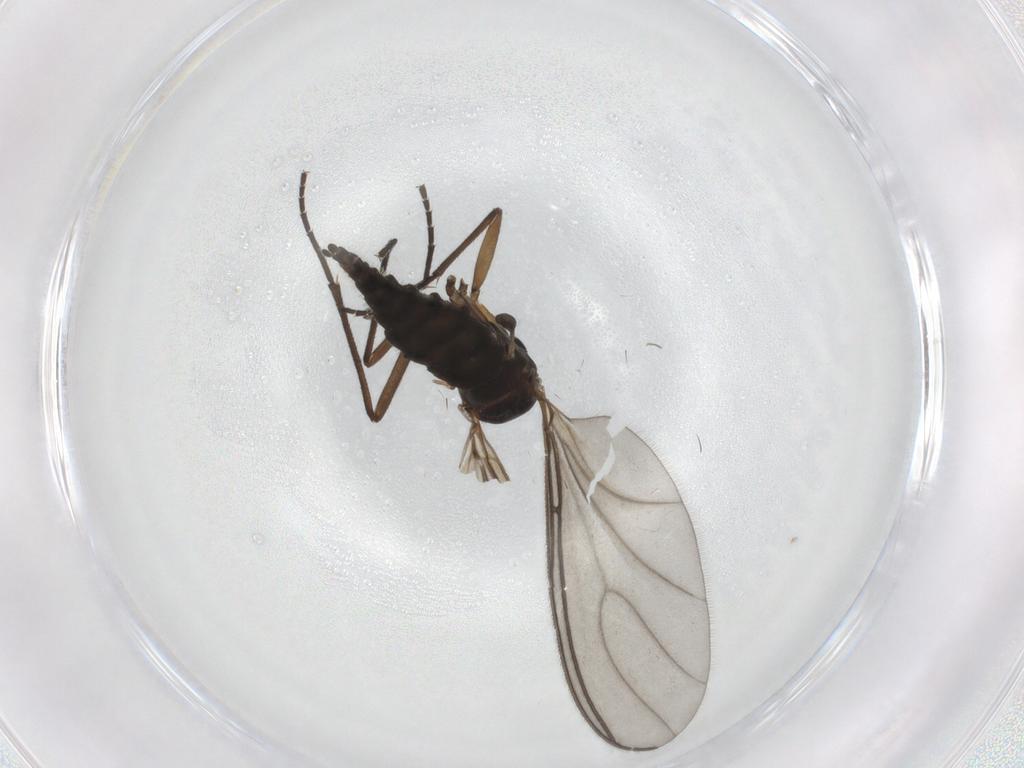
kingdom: Animalia
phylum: Arthropoda
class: Insecta
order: Diptera
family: Sciaridae
